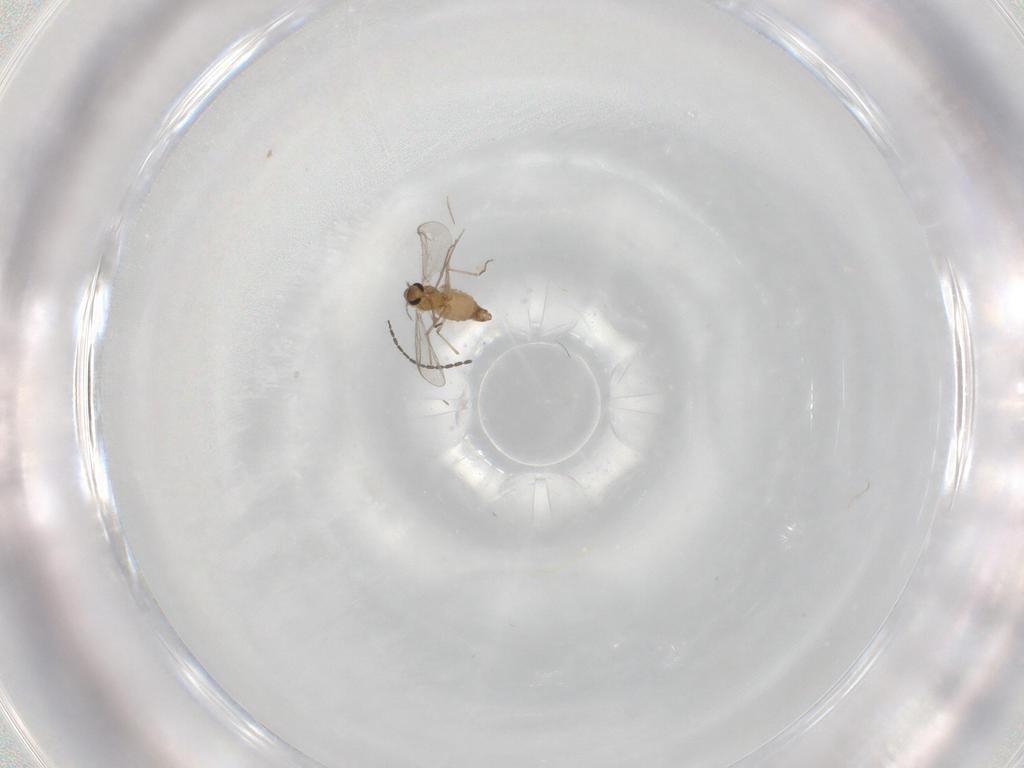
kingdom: Animalia
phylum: Arthropoda
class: Insecta
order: Diptera
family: Chironomidae
